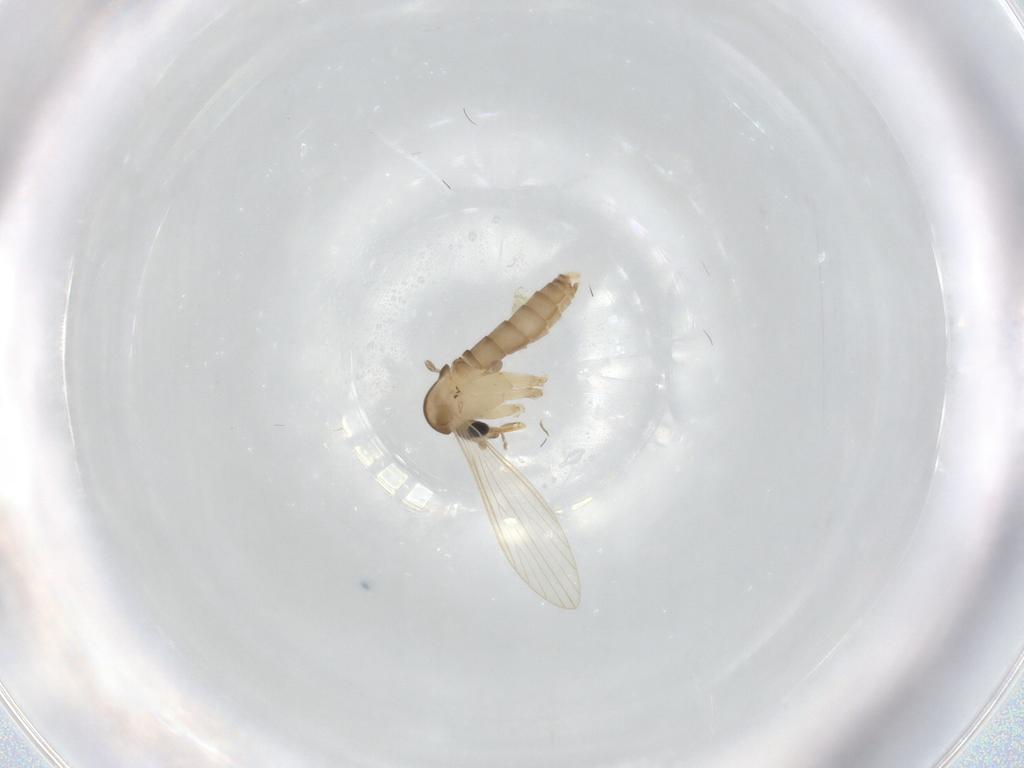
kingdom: Animalia
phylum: Arthropoda
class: Insecta
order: Diptera
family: Psychodidae
